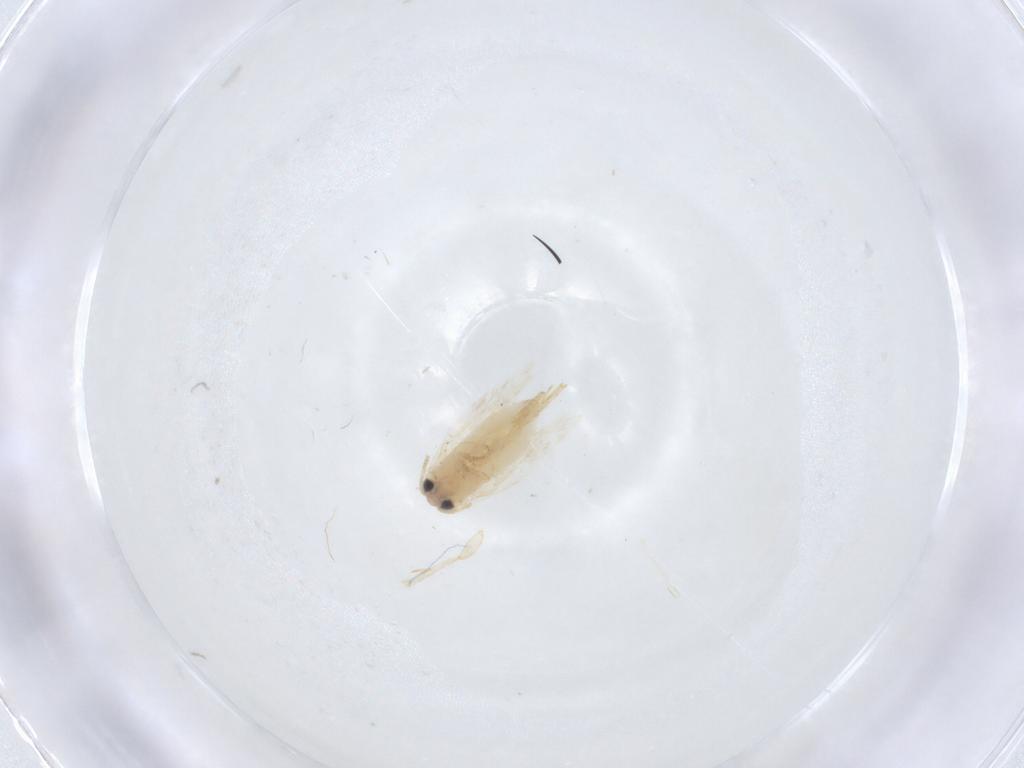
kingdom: Animalia
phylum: Arthropoda
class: Insecta
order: Lepidoptera
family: Nepticulidae
